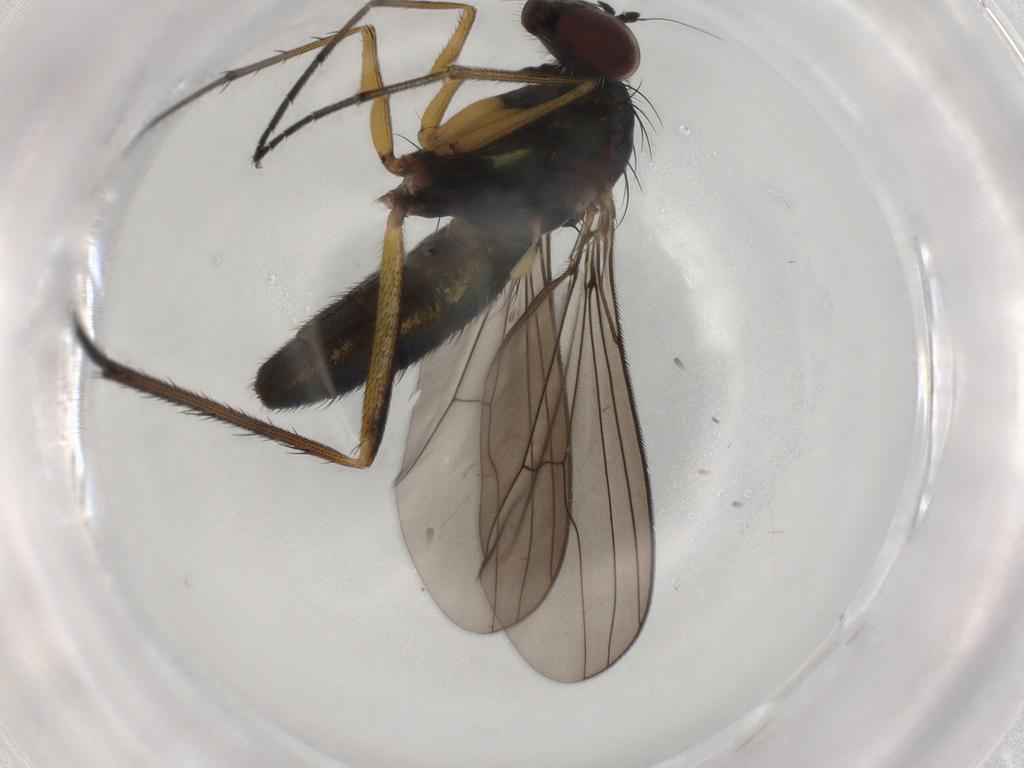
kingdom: Animalia
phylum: Arthropoda
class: Insecta
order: Diptera
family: Dolichopodidae
